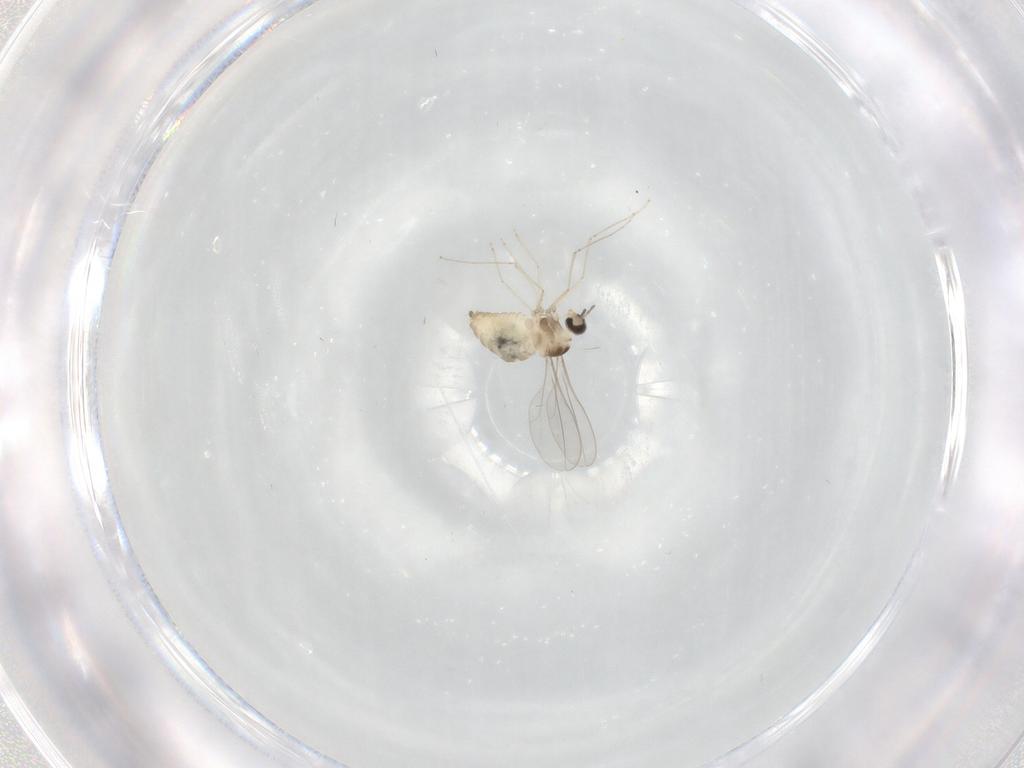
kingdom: Animalia
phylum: Arthropoda
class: Insecta
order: Diptera
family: Cecidomyiidae
